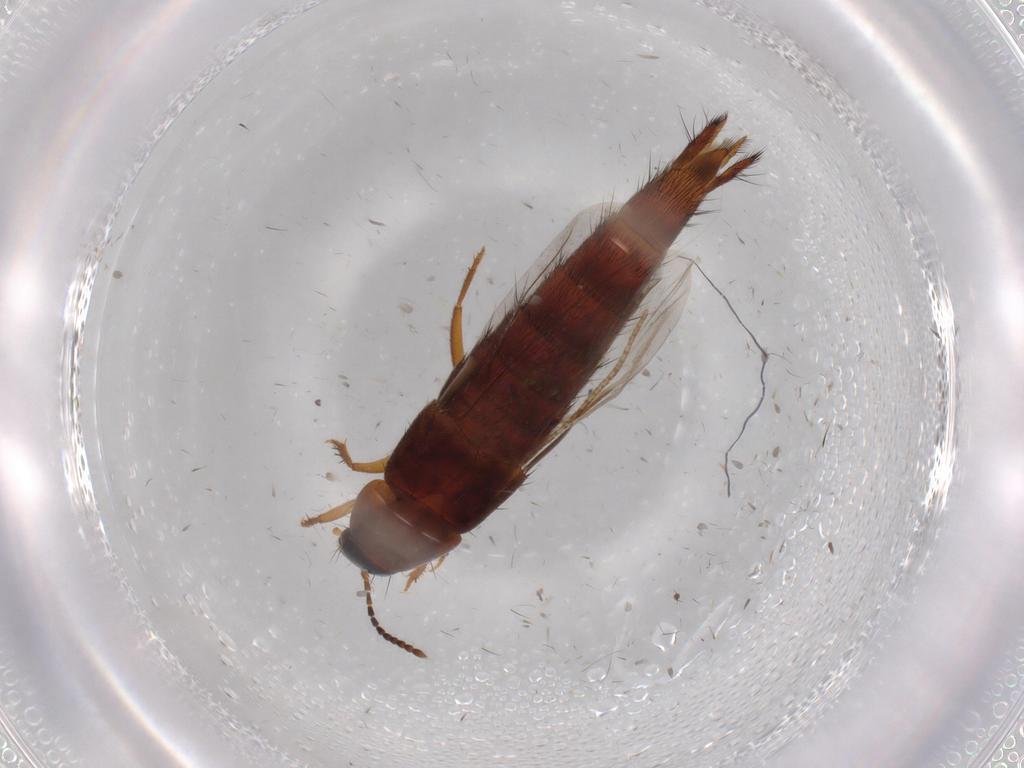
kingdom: Animalia
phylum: Arthropoda
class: Insecta
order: Coleoptera
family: Staphylinidae
